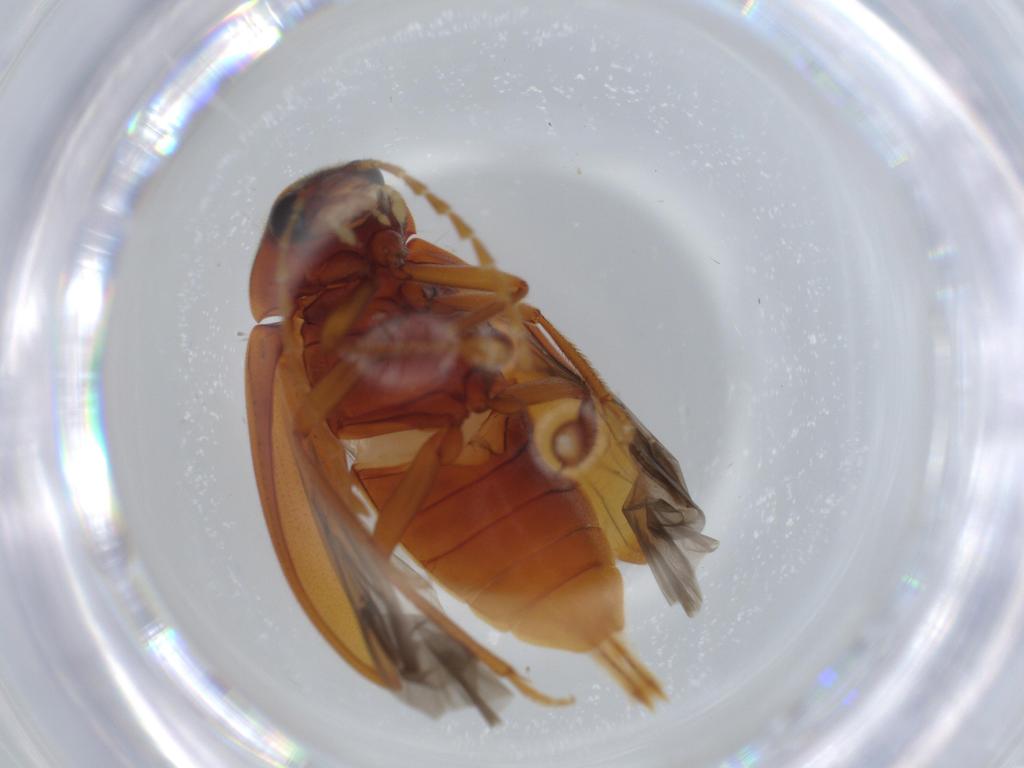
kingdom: Animalia
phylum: Arthropoda
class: Insecta
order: Coleoptera
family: Ptilodactylidae
